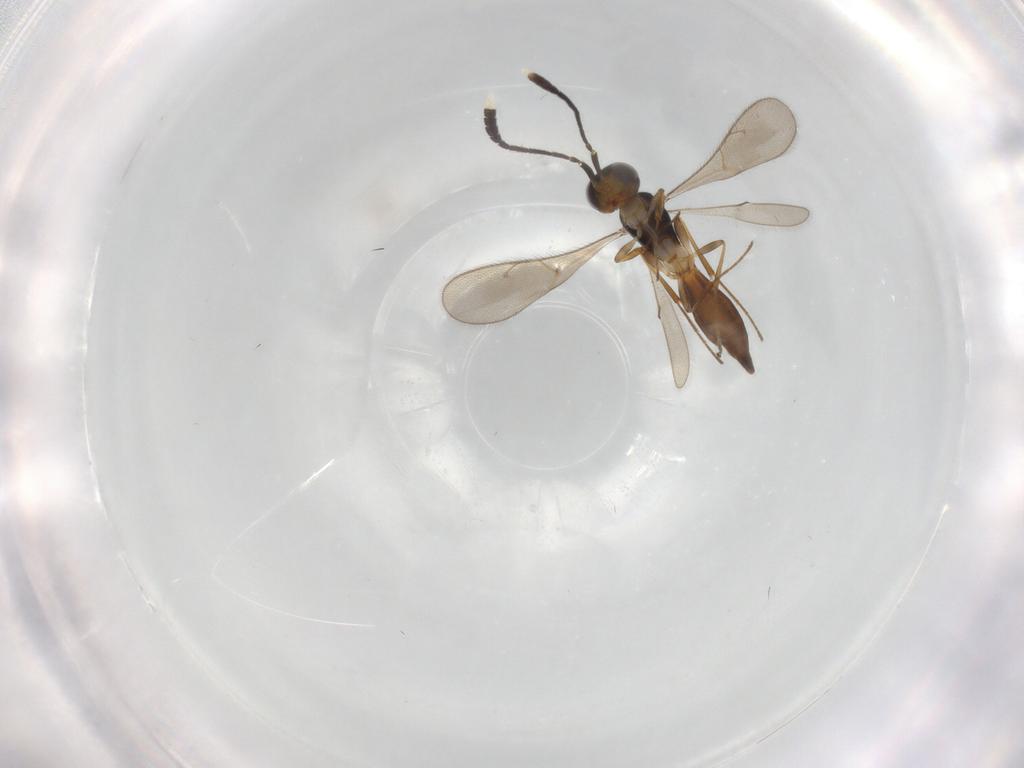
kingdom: Animalia
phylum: Arthropoda
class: Insecta
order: Hymenoptera
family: Scelionidae
